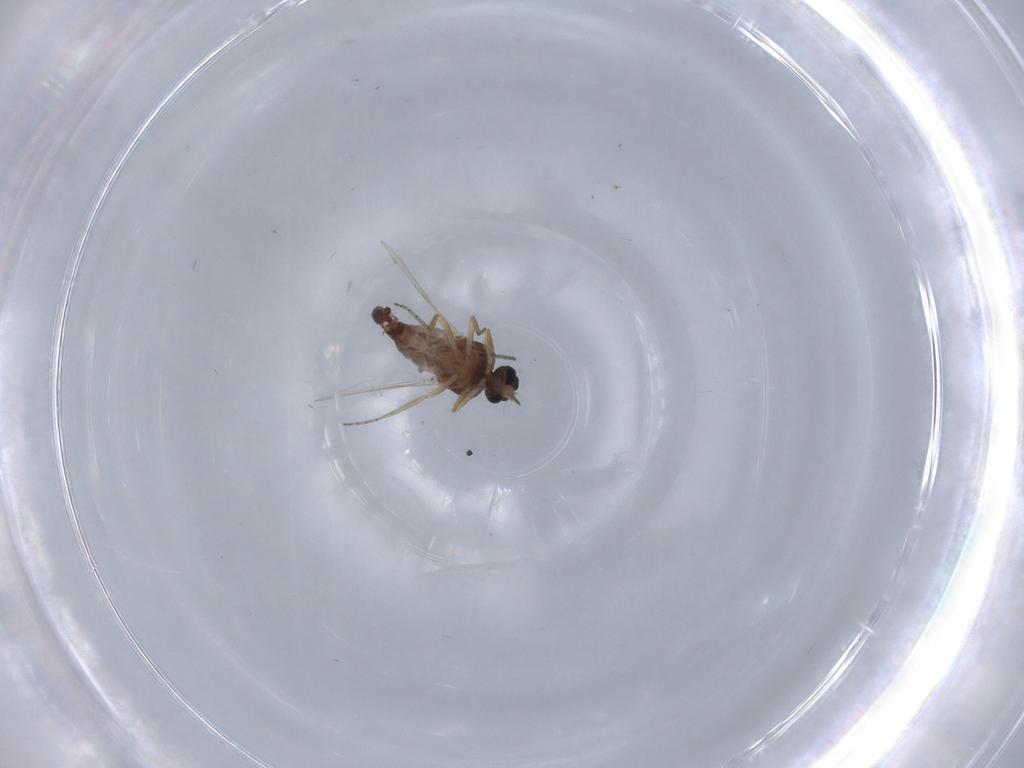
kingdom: Animalia
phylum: Arthropoda
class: Insecta
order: Diptera
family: Ceratopogonidae
